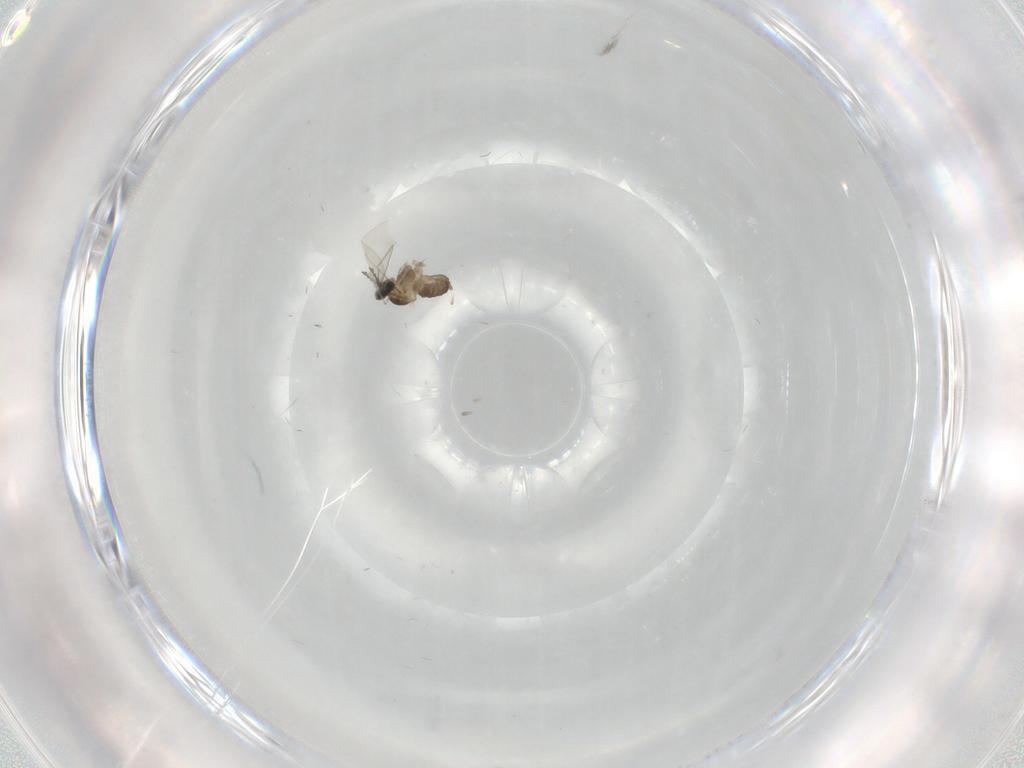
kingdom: Animalia
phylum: Arthropoda
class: Insecta
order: Diptera
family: Cecidomyiidae
